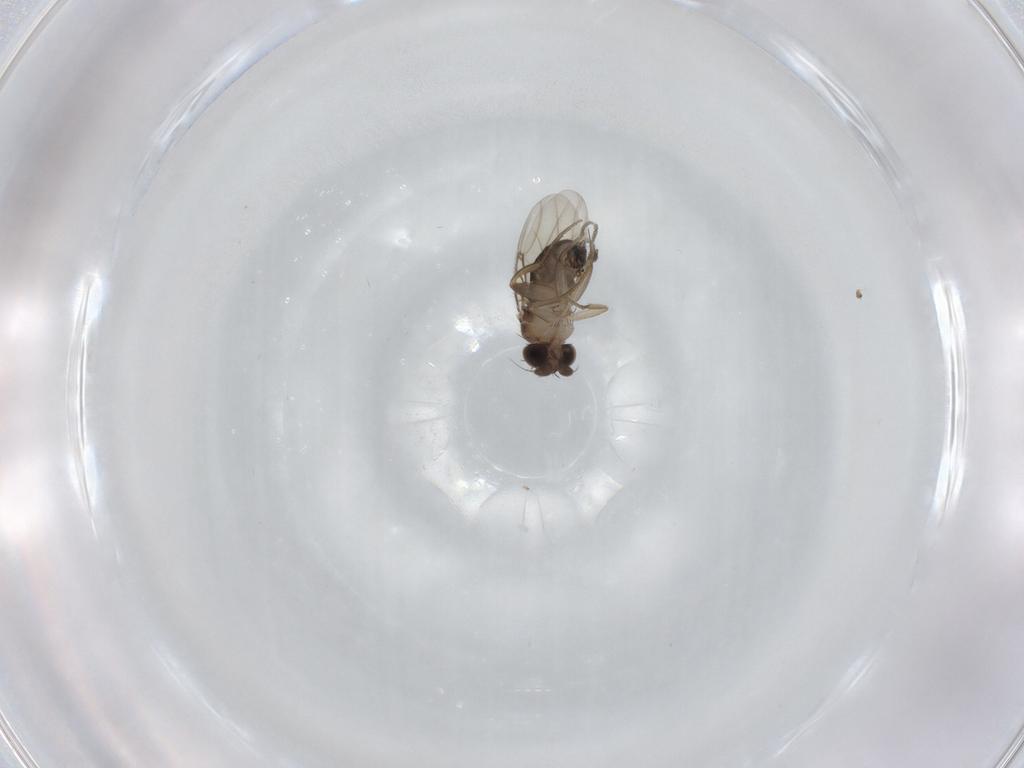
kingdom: Animalia
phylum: Arthropoda
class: Insecta
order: Diptera
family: Phoridae
